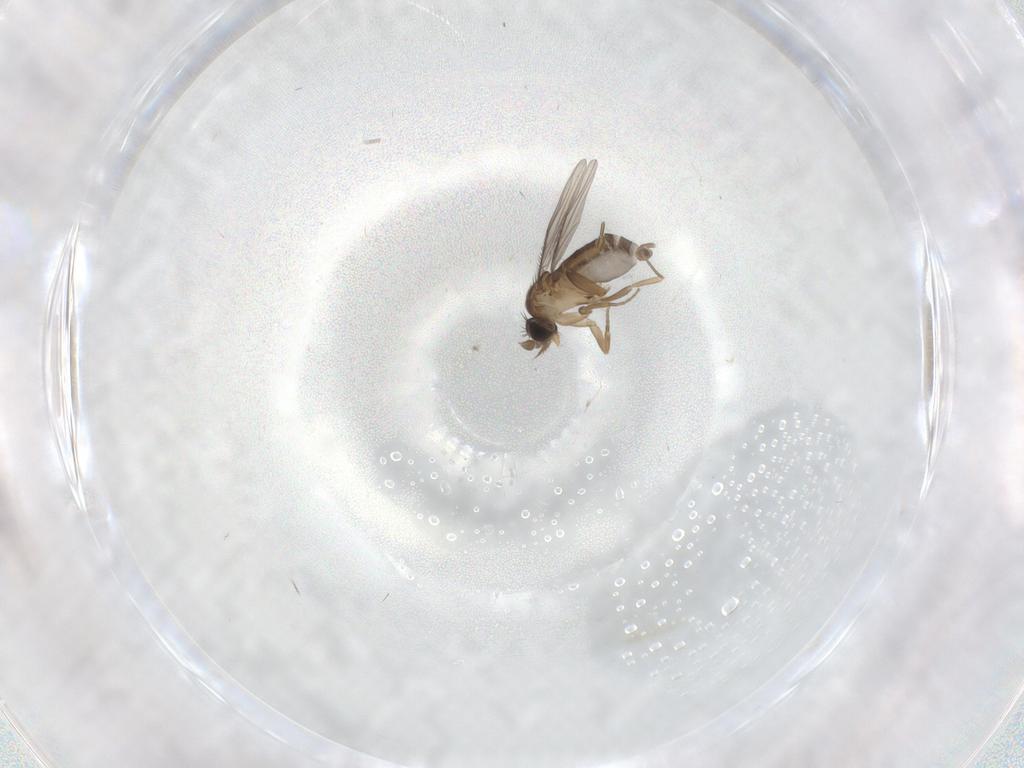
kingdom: Animalia
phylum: Arthropoda
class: Insecta
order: Diptera
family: Phoridae
